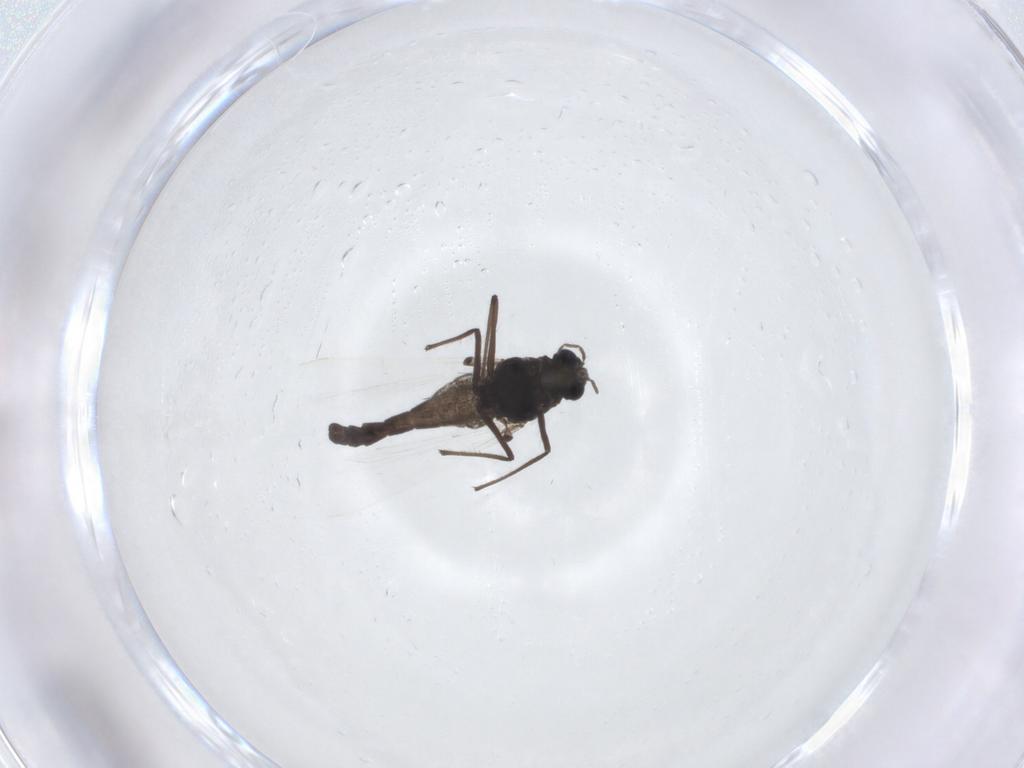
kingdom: Animalia
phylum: Arthropoda
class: Insecta
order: Diptera
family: Chironomidae
